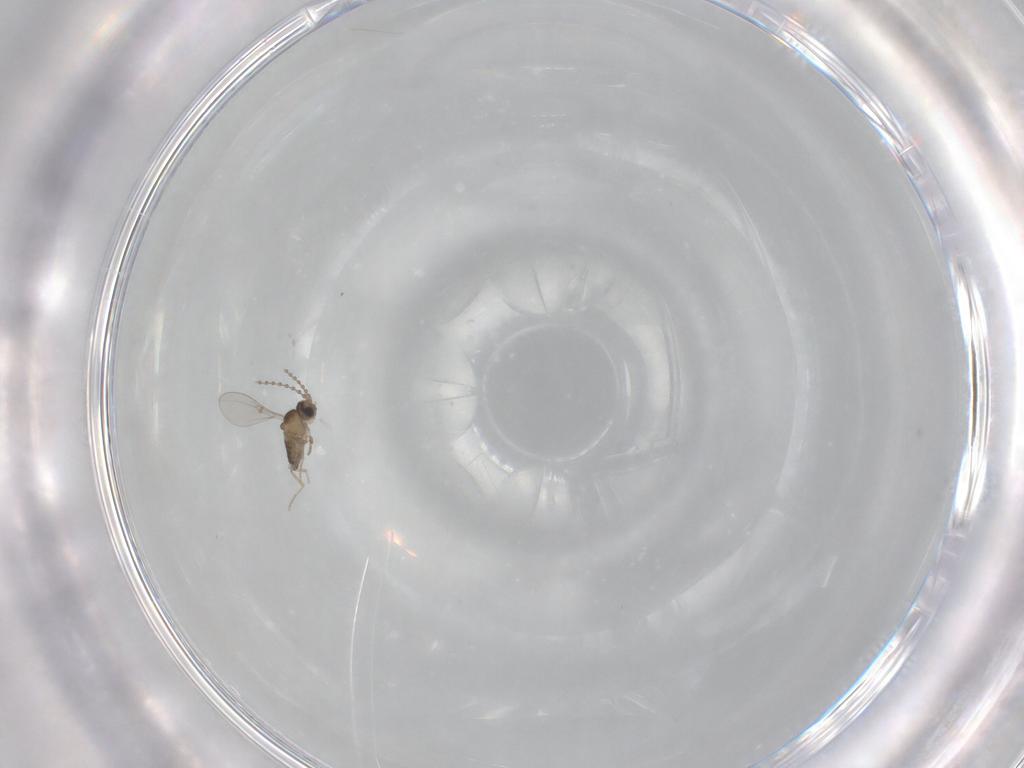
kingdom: Animalia
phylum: Arthropoda
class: Insecta
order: Diptera
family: Cecidomyiidae
